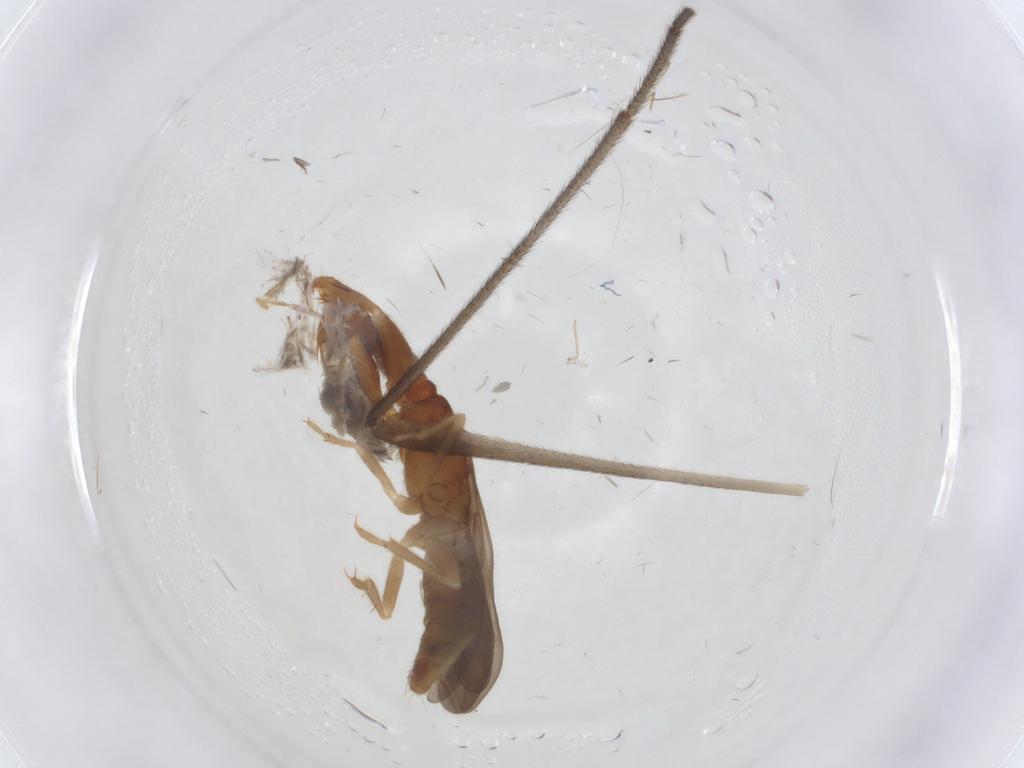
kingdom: Animalia
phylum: Arthropoda
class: Insecta
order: Hemiptera
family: Enicocephalidae
